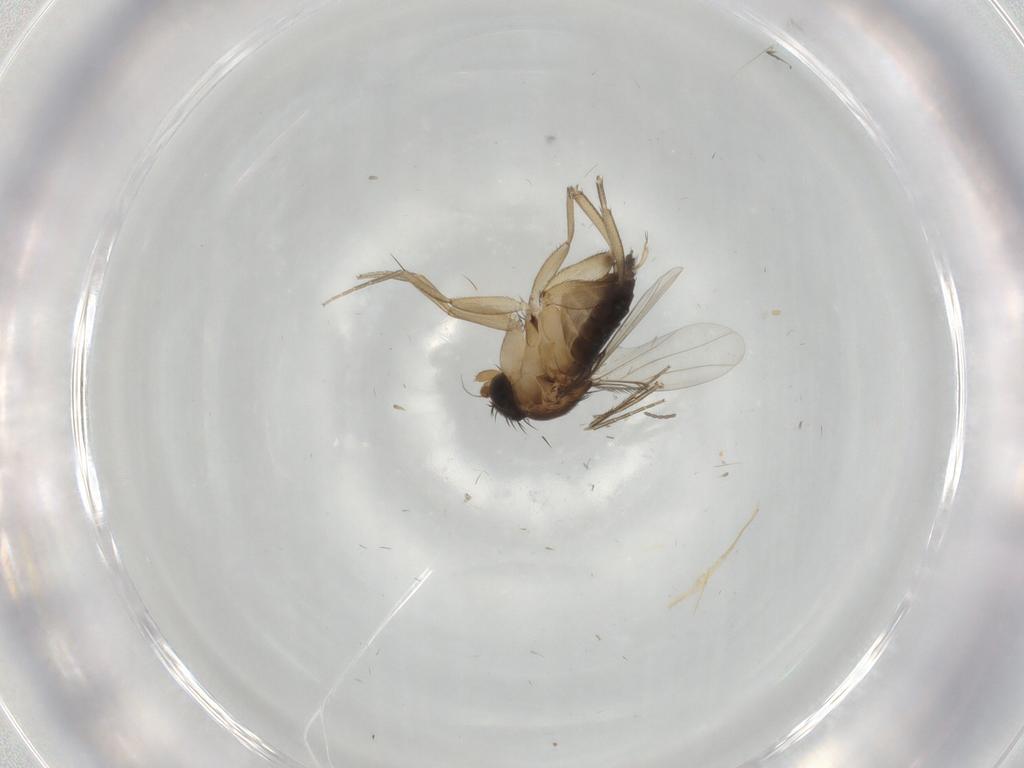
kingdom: Animalia
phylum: Arthropoda
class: Insecta
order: Diptera
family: Cecidomyiidae
